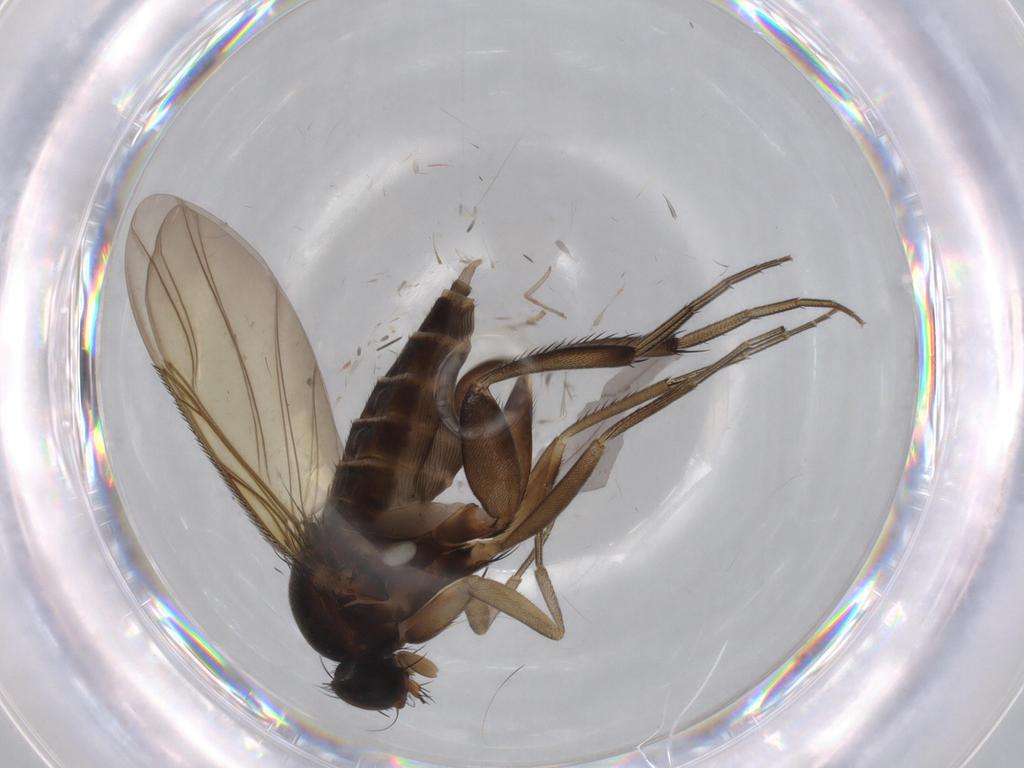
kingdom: Animalia
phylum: Arthropoda
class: Insecta
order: Diptera
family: Phoridae
